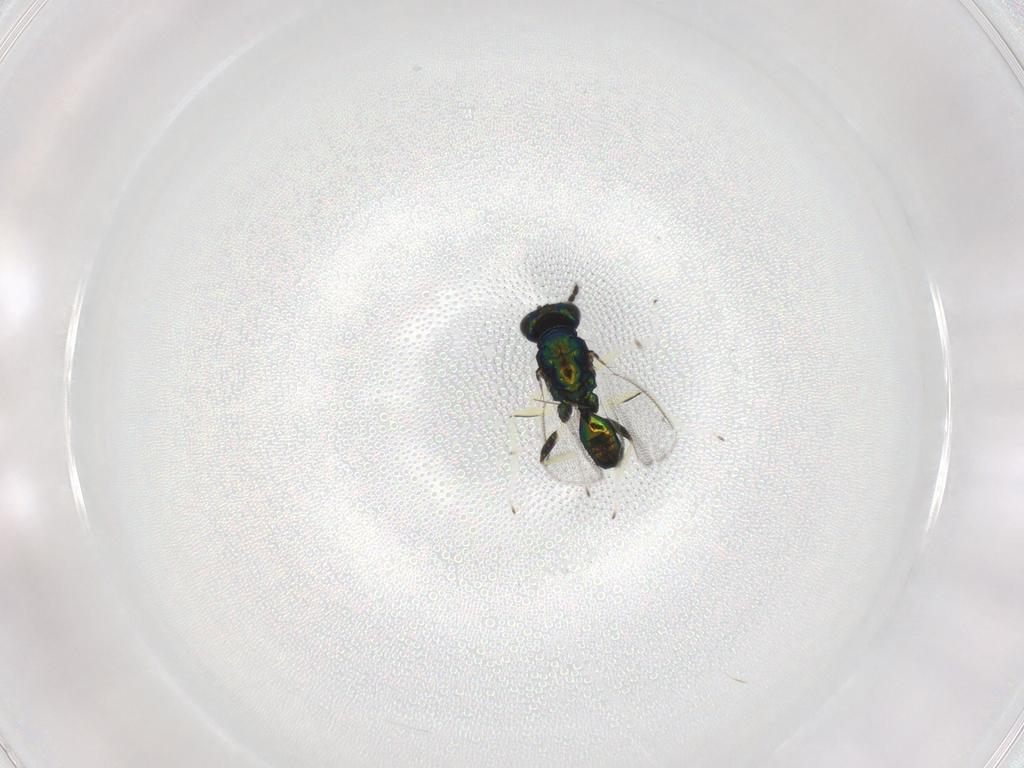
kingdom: Animalia
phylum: Arthropoda
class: Insecta
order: Hymenoptera
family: Eulophidae
